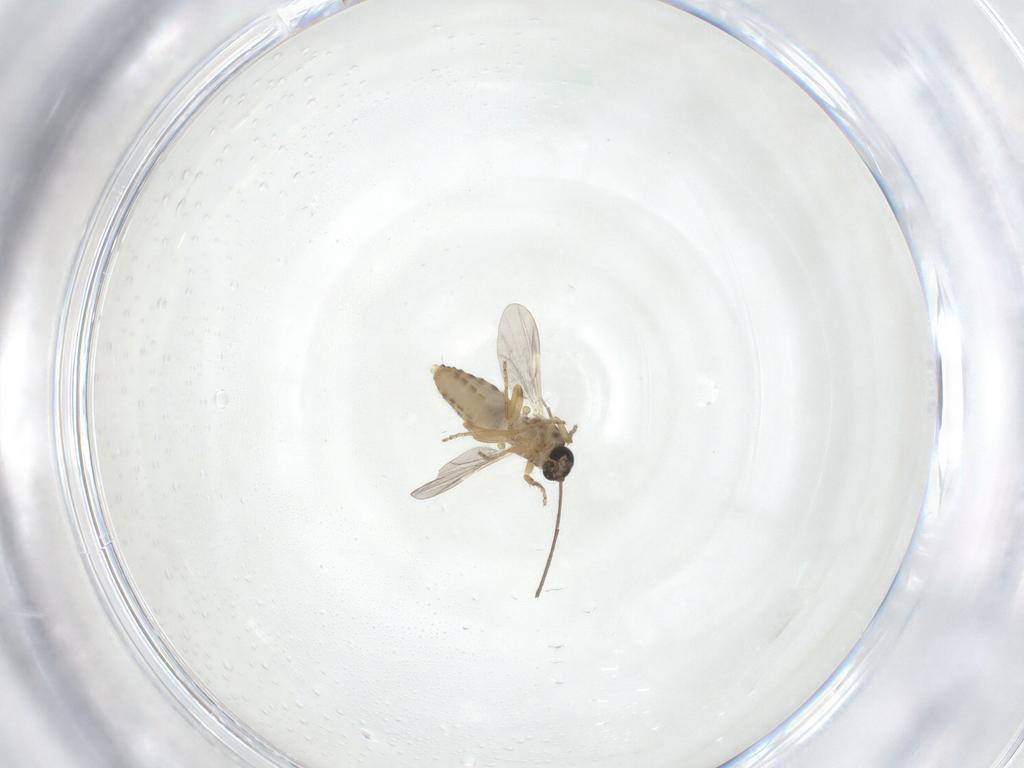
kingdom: Animalia
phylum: Arthropoda
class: Insecta
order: Diptera
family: Ceratopogonidae
